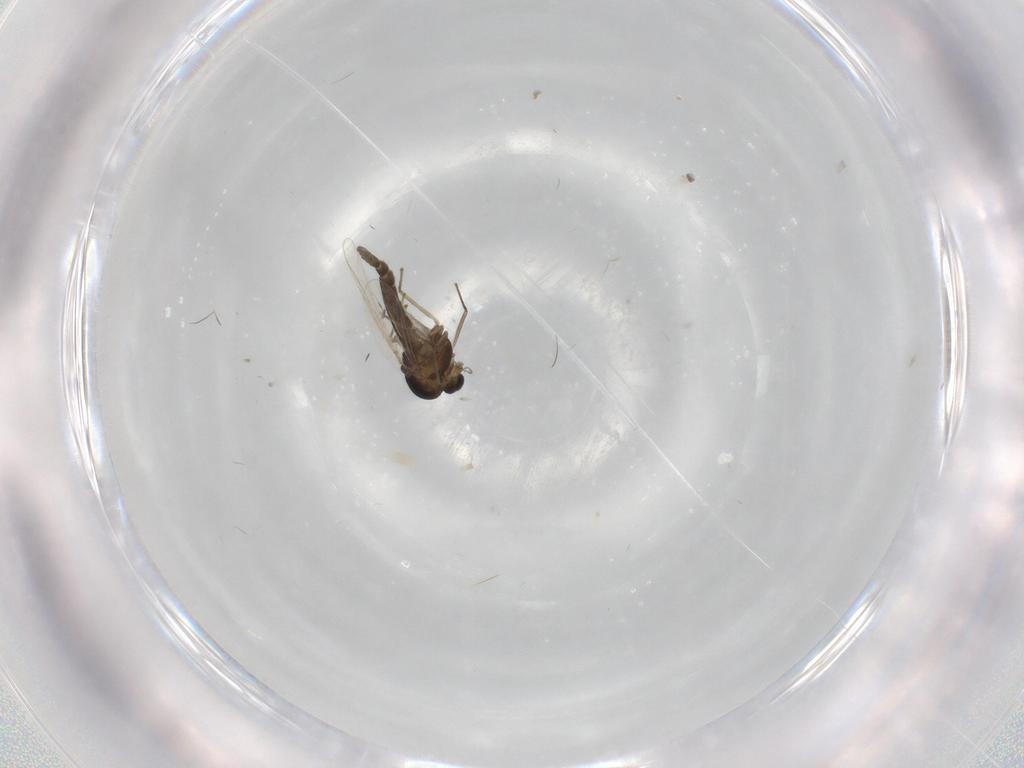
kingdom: Animalia
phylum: Arthropoda
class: Insecta
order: Diptera
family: Chironomidae
